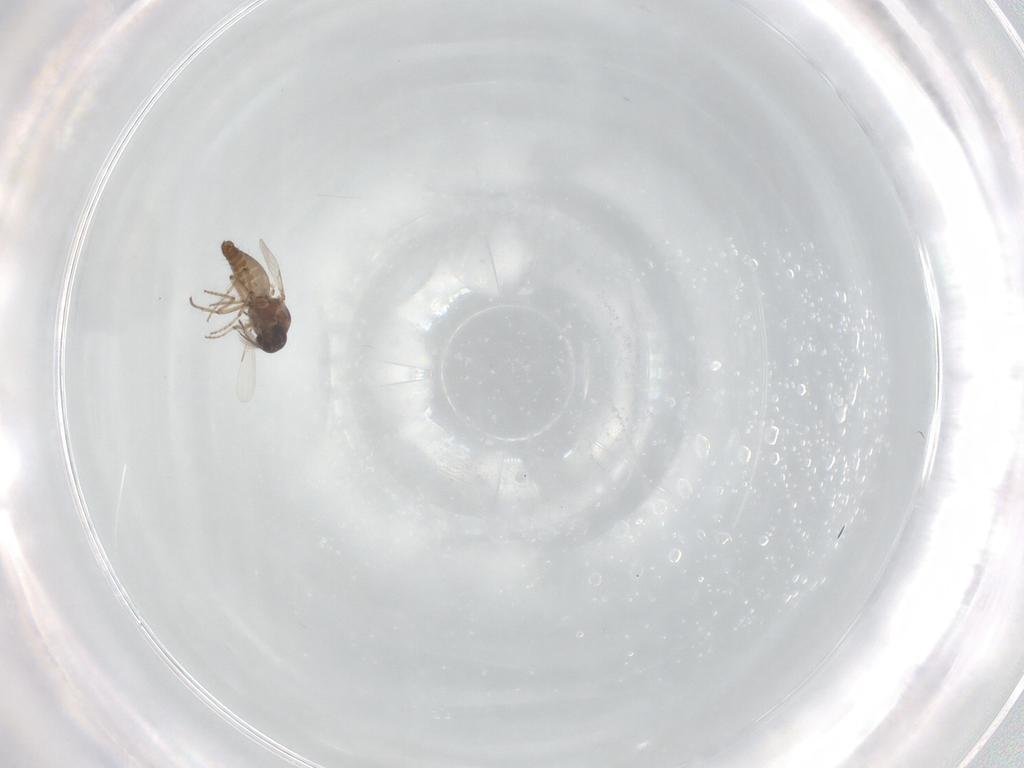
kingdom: Animalia
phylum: Arthropoda
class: Insecta
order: Diptera
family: Ceratopogonidae
